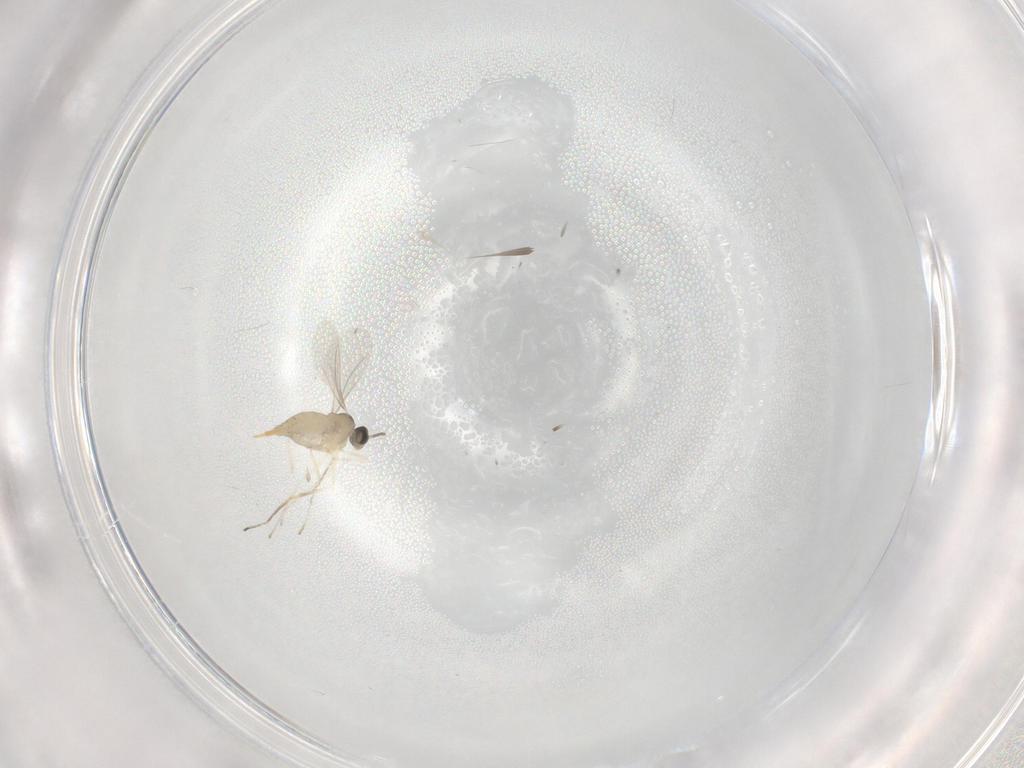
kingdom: Animalia
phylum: Arthropoda
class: Insecta
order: Diptera
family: Cecidomyiidae
